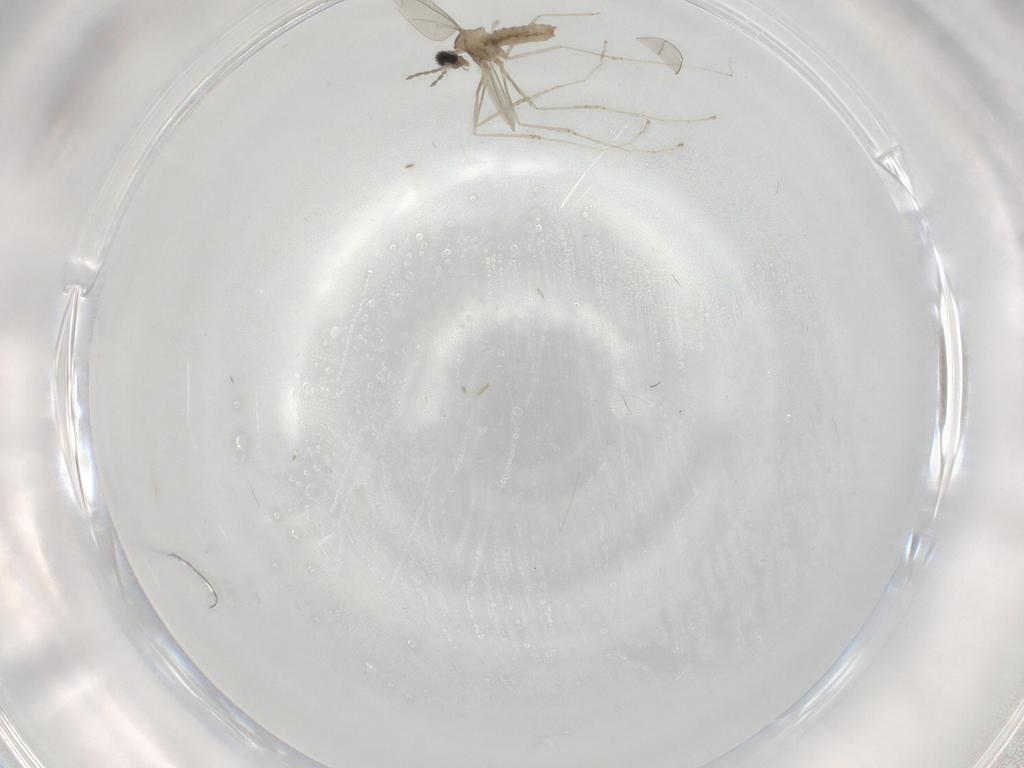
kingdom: Animalia
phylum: Arthropoda
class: Insecta
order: Diptera
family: Cecidomyiidae
